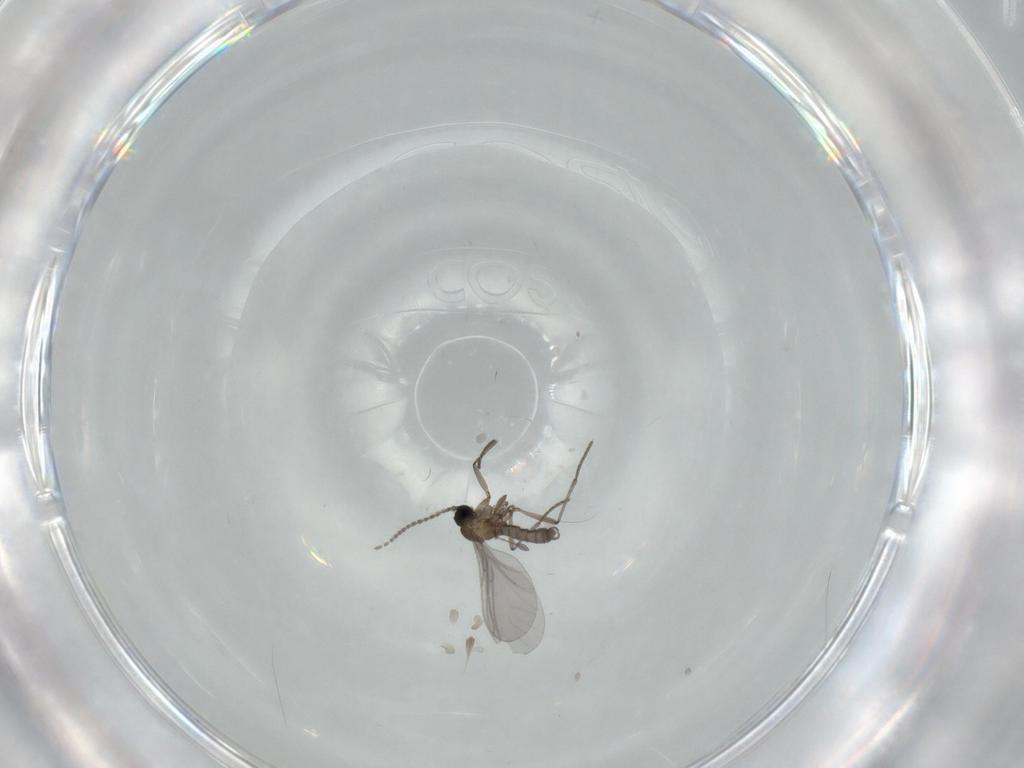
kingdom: Animalia
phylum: Arthropoda
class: Insecta
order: Diptera
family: Sciaridae
